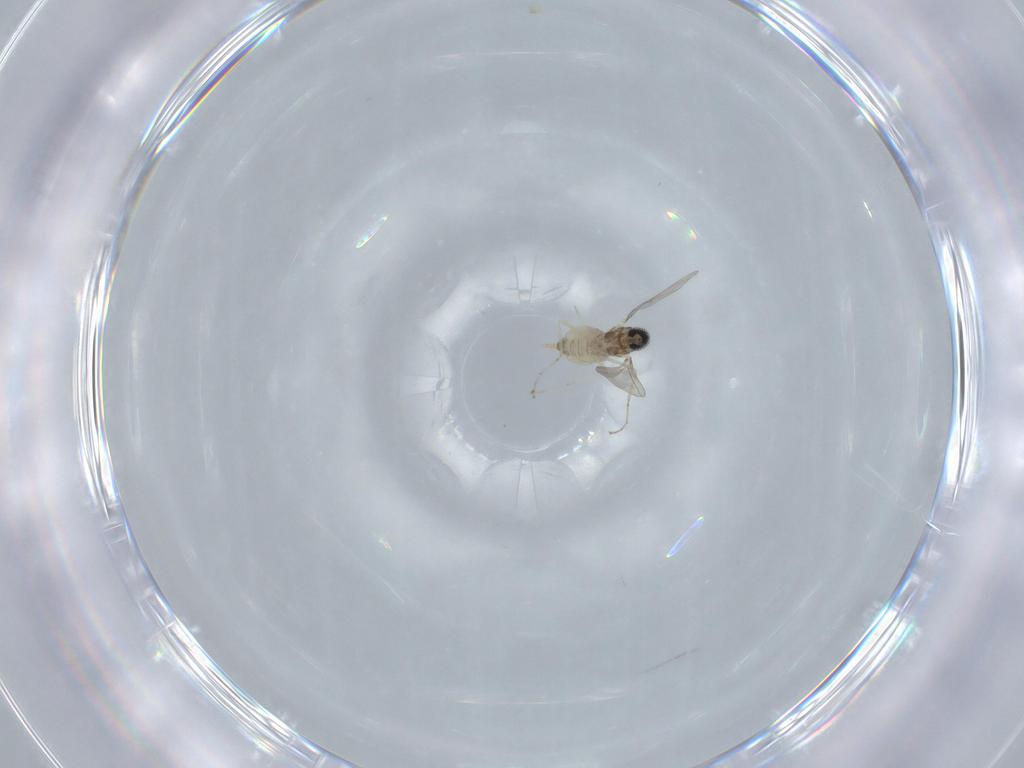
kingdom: Animalia
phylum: Arthropoda
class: Insecta
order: Diptera
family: Cecidomyiidae
